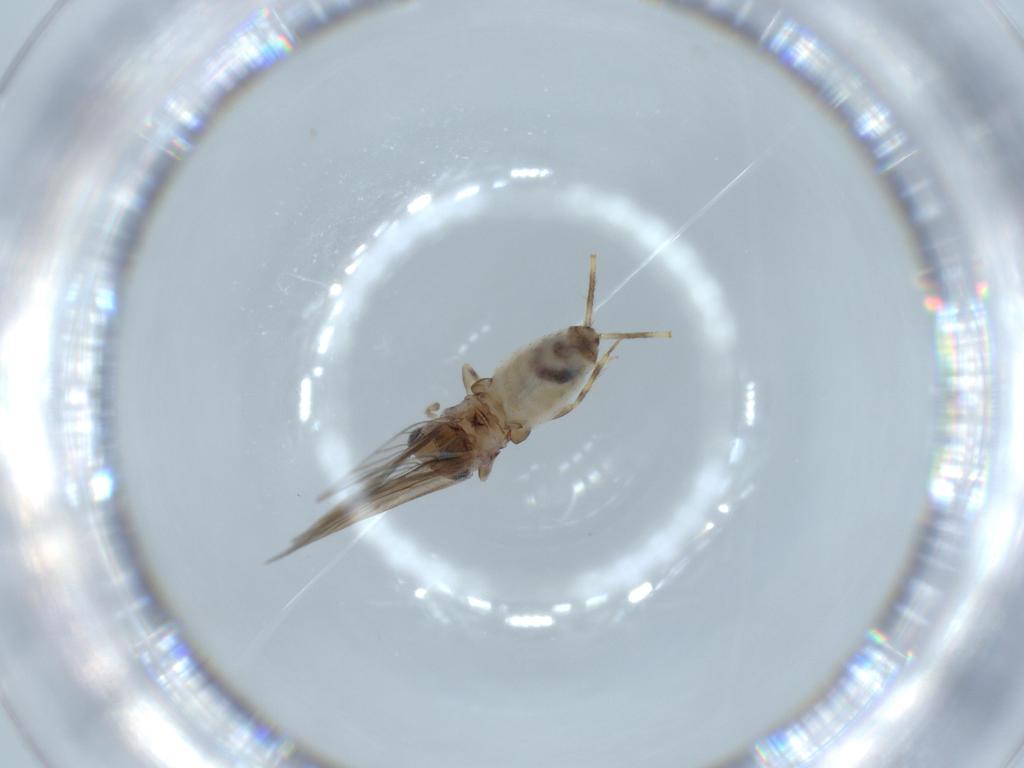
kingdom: Animalia
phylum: Arthropoda
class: Insecta
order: Psocodea
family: Lepidopsocidae
